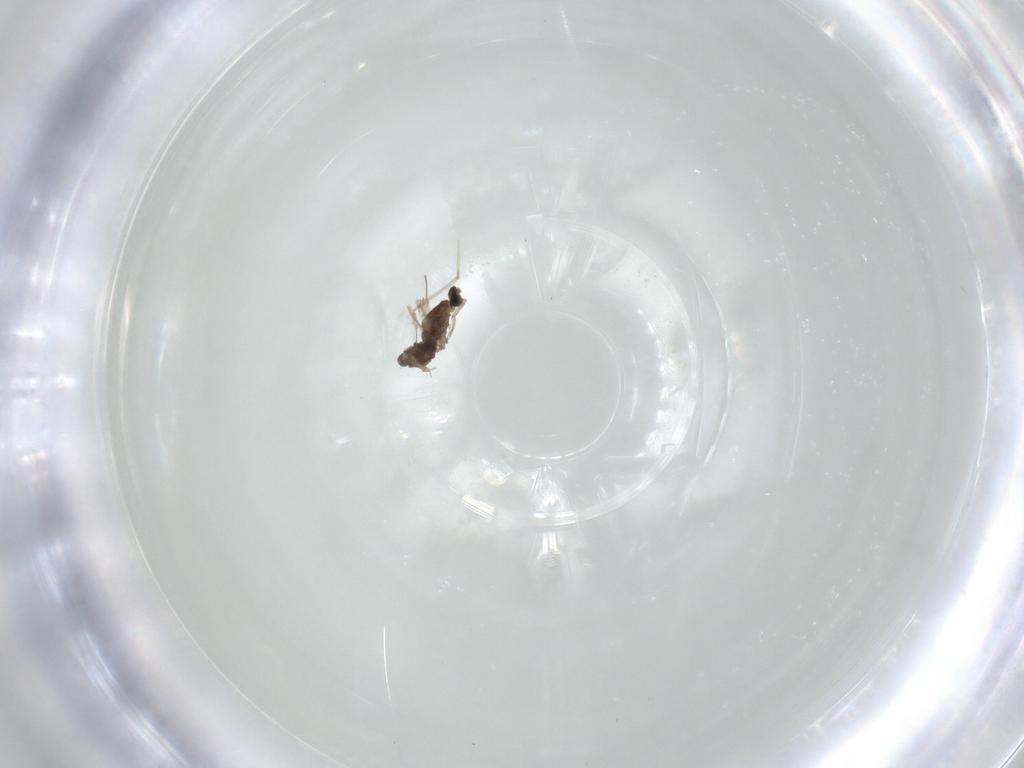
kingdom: Animalia
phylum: Arthropoda
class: Insecta
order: Diptera
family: Cecidomyiidae
